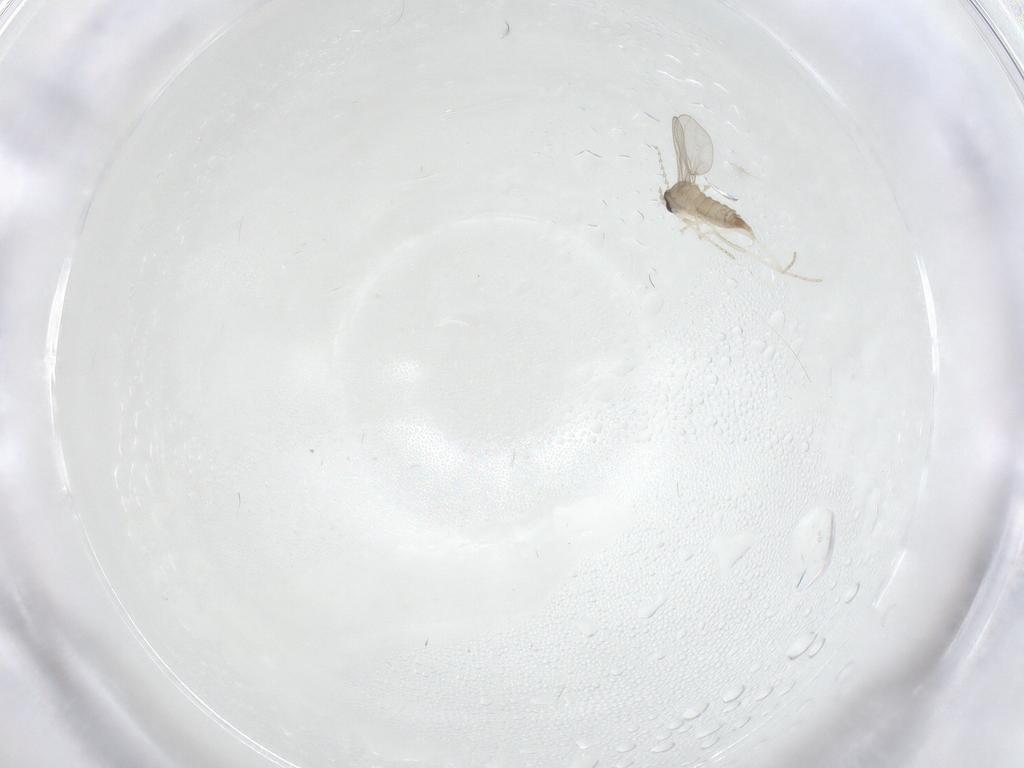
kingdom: Animalia
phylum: Arthropoda
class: Insecta
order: Diptera
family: Cecidomyiidae
